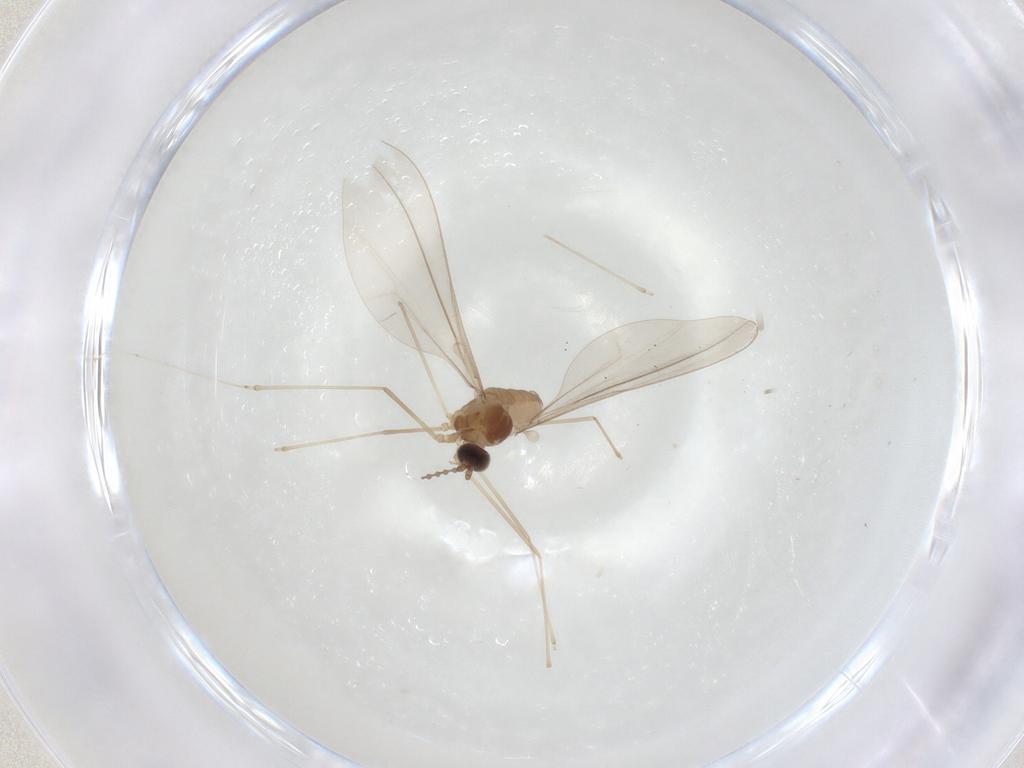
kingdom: Animalia
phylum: Arthropoda
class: Insecta
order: Diptera
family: Cecidomyiidae
